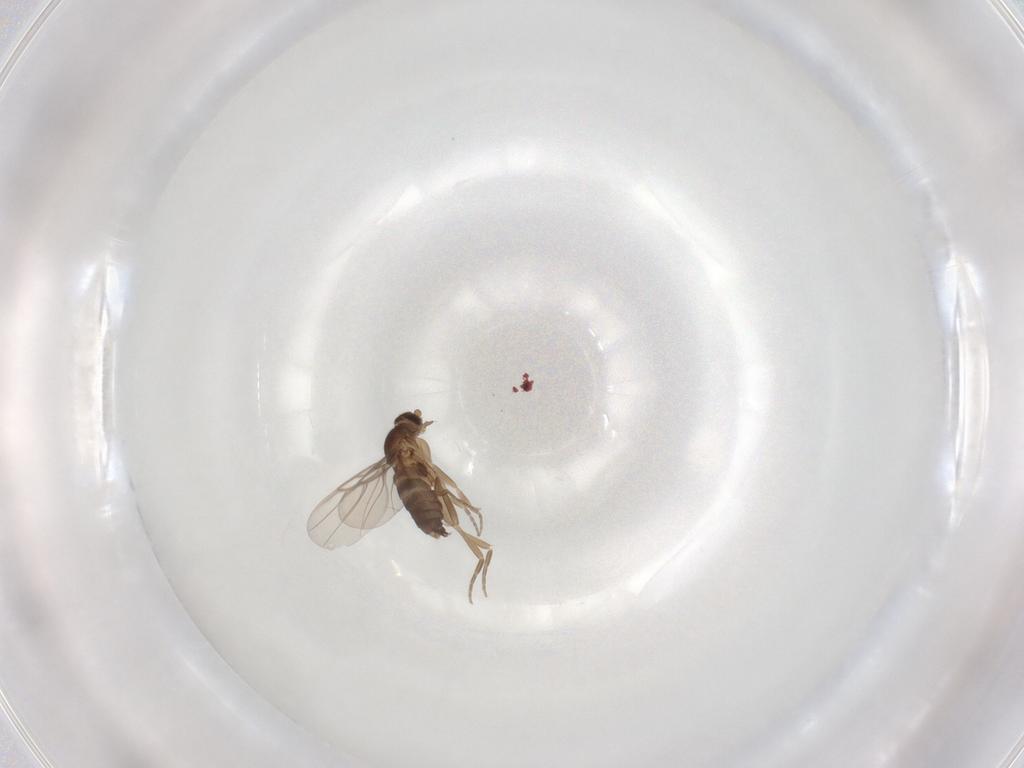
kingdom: Animalia
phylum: Arthropoda
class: Insecta
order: Diptera
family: Phoridae
